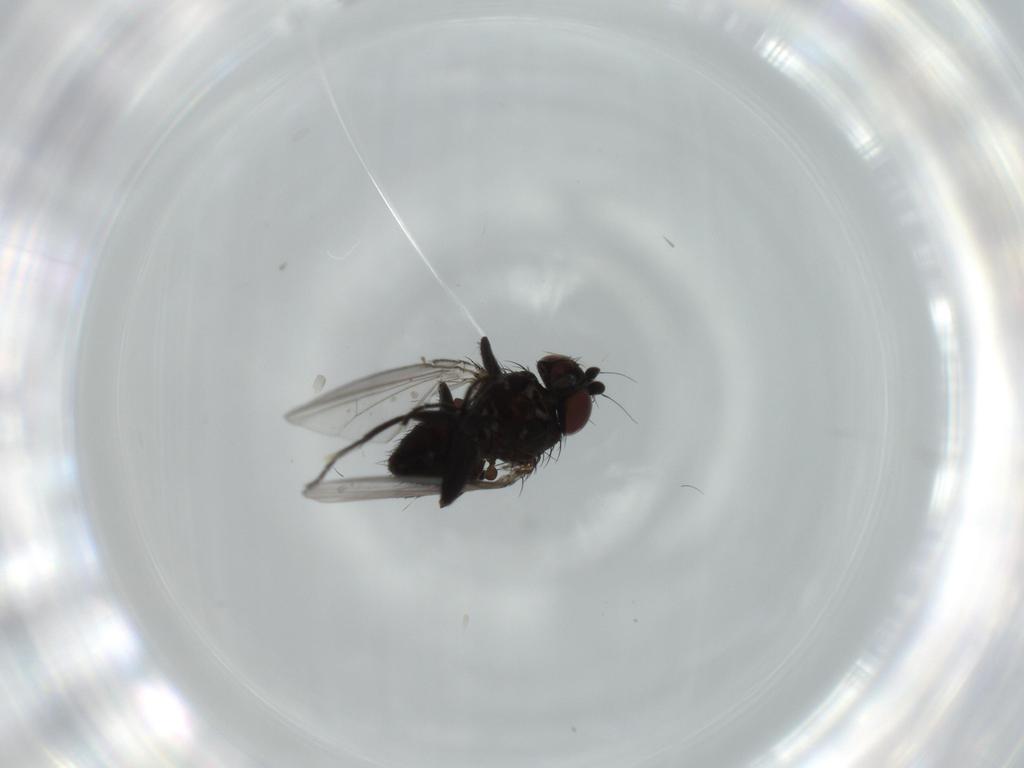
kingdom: Animalia
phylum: Arthropoda
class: Insecta
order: Diptera
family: Milichiidae
